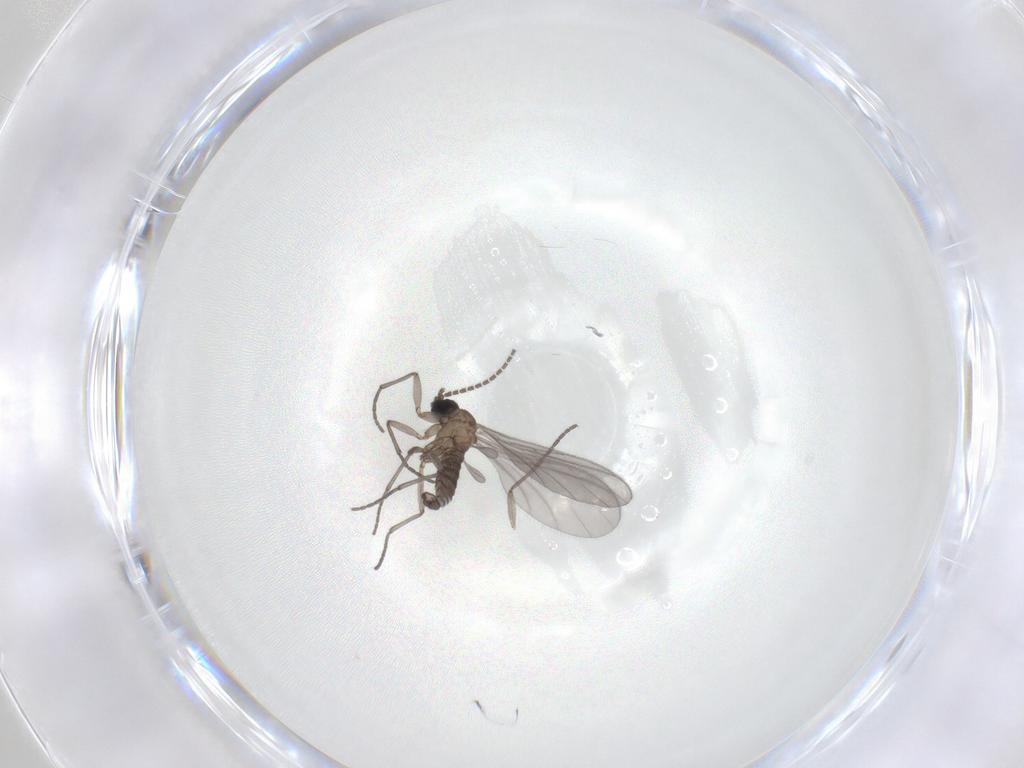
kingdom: Animalia
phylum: Arthropoda
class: Insecta
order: Diptera
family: Sciaridae
